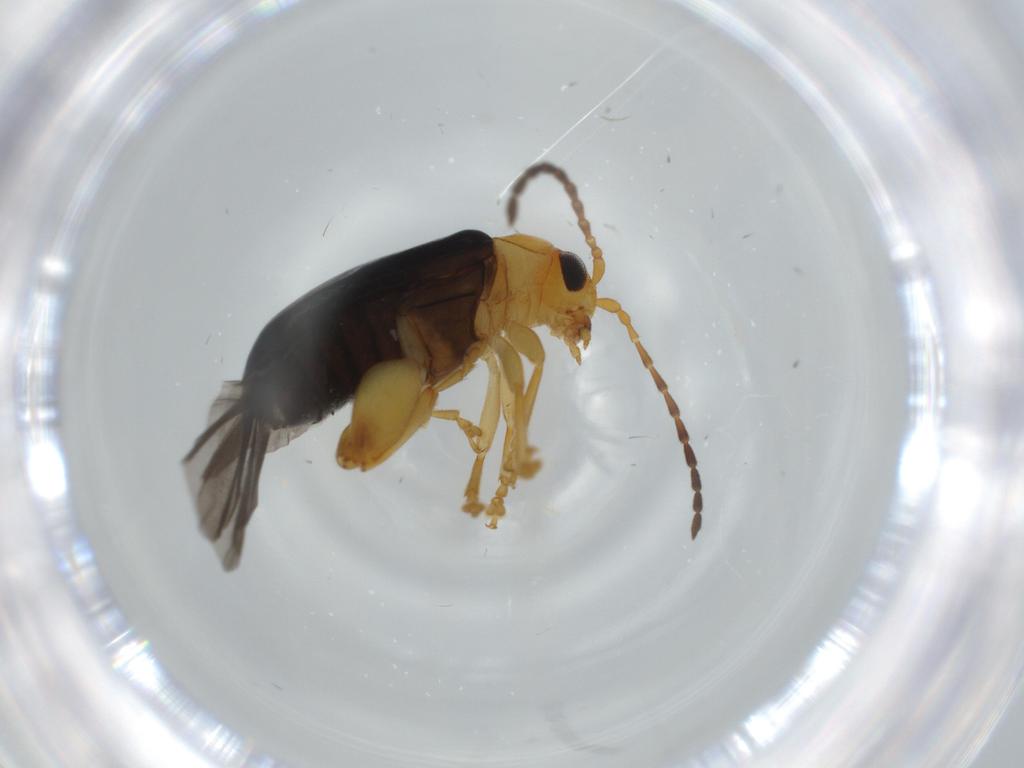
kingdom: Animalia
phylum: Arthropoda
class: Insecta
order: Coleoptera
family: Chrysomelidae
